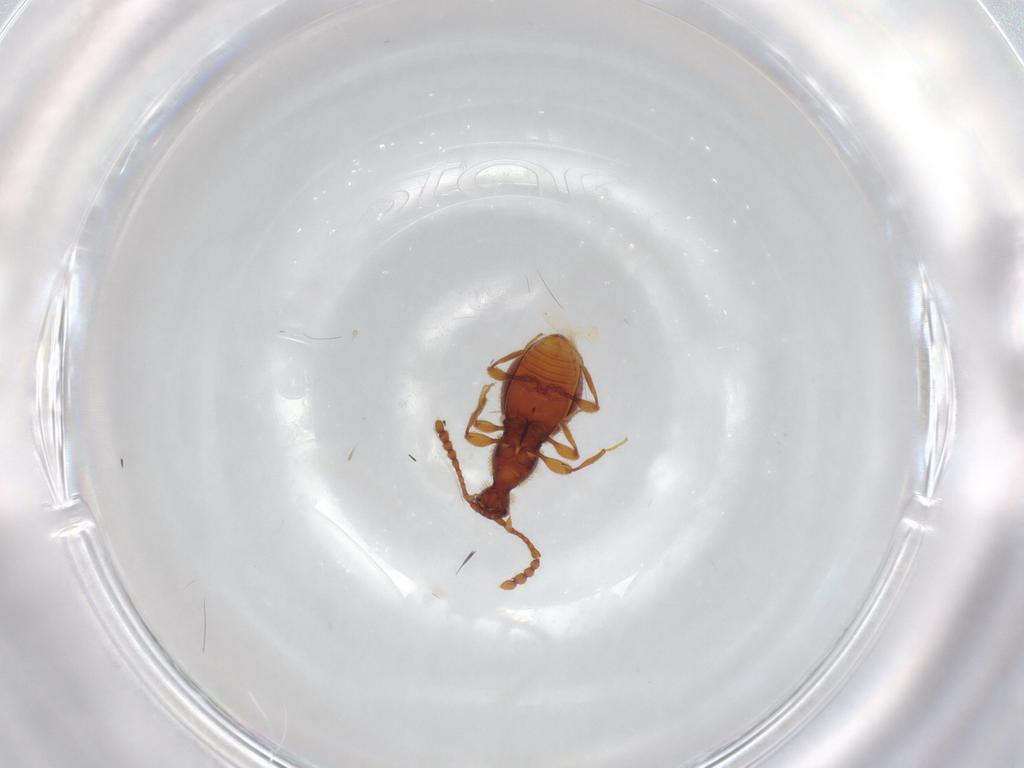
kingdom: Animalia
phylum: Arthropoda
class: Insecta
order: Coleoptera
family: Staphylinidae
